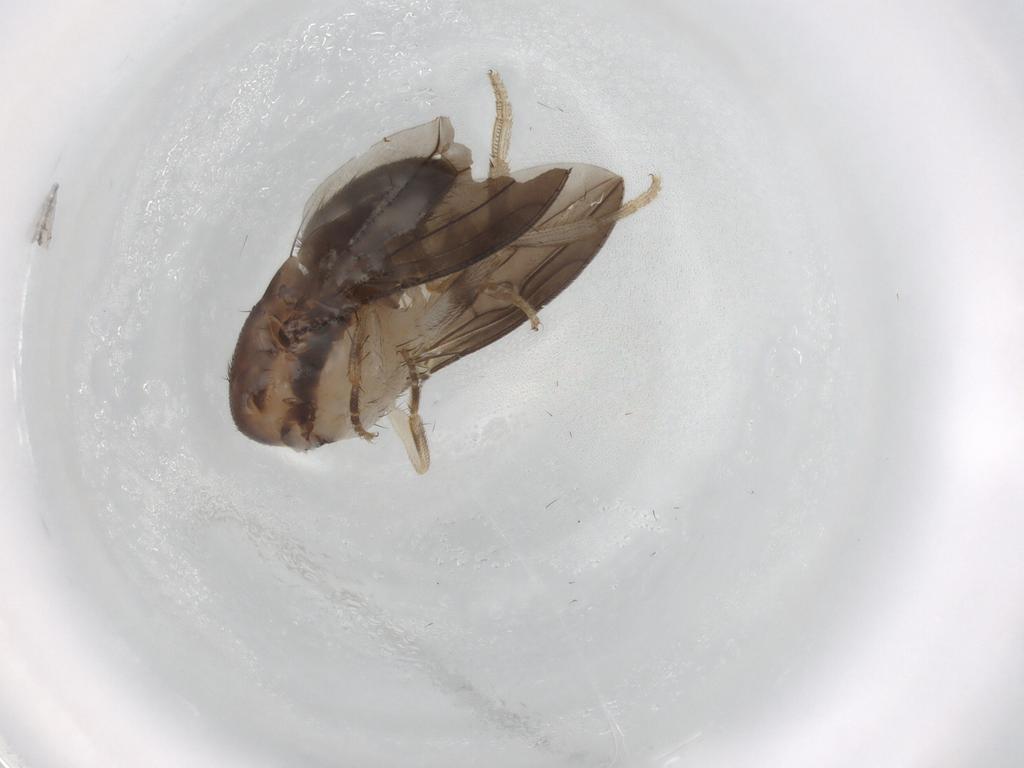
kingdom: Animalia
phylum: Arthropoda
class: Insecta
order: Diptera
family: Drosophilidae
